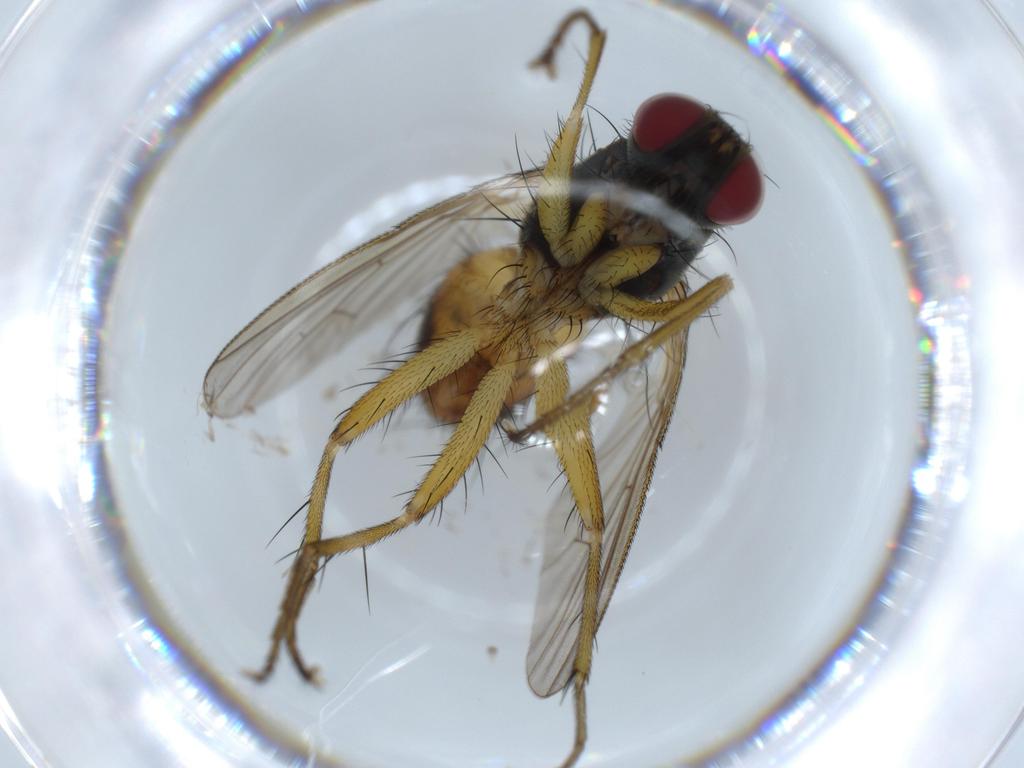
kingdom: Animalia
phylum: Arthropoda
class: Insecta
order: Diptera
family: Muscidae
